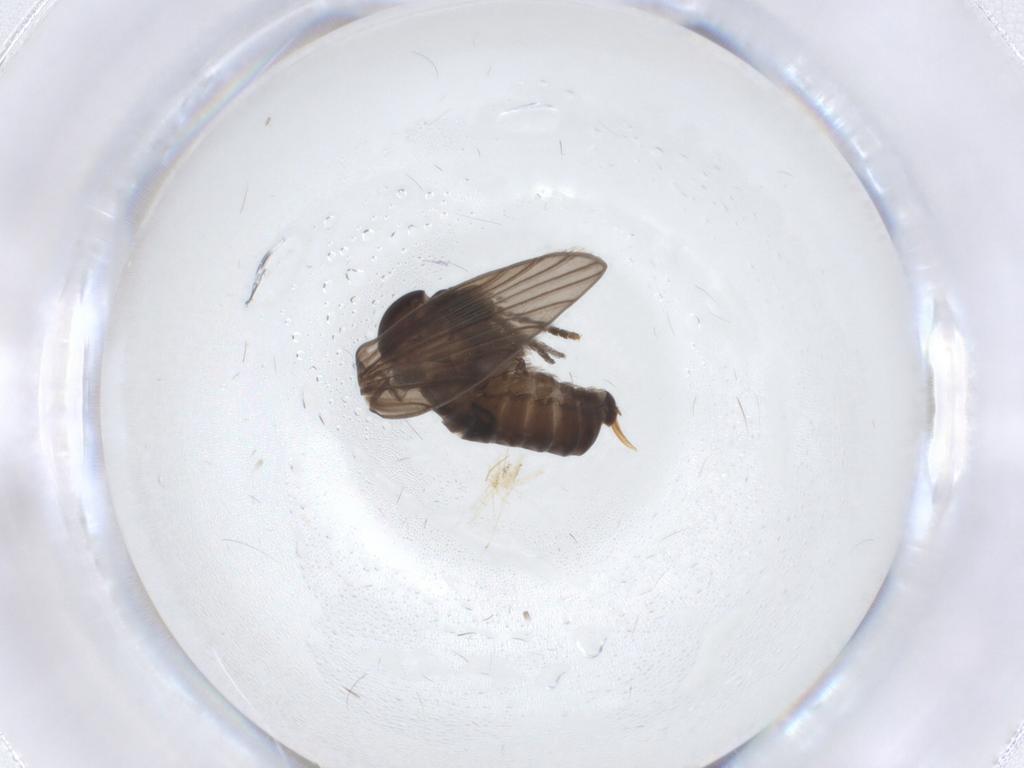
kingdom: Animalia
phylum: Arthropoda
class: Insecta
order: Diptera
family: Psychodidae
